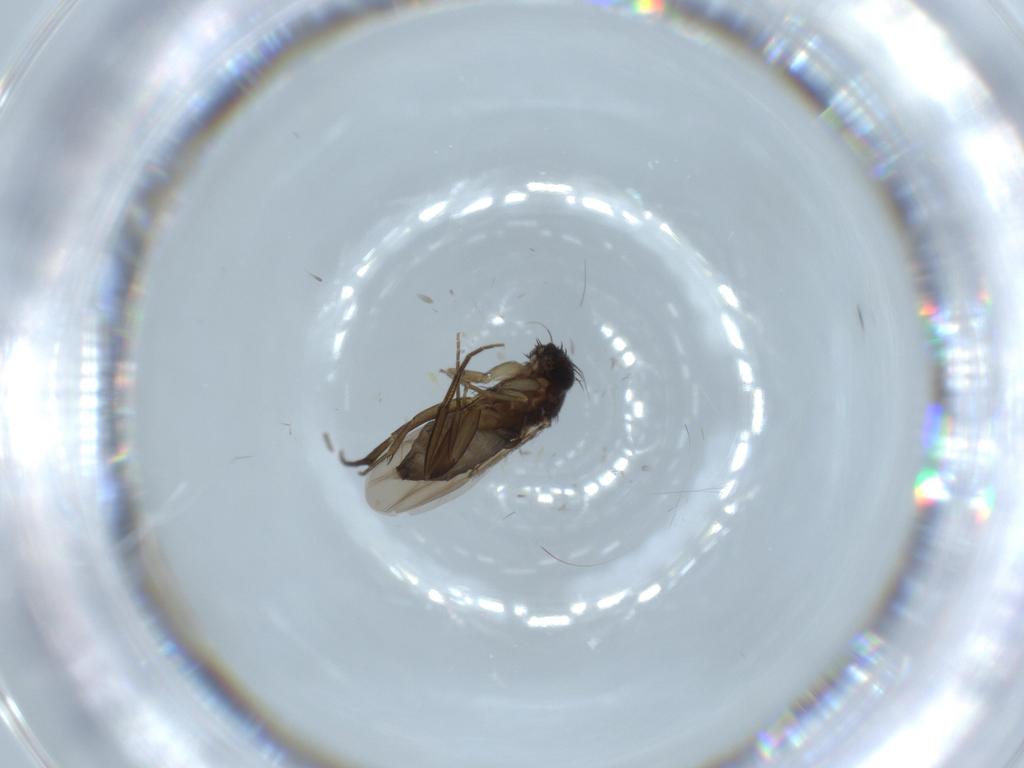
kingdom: Animalia
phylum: Arthropoda
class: Insecta
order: Diptera
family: Phoridae
